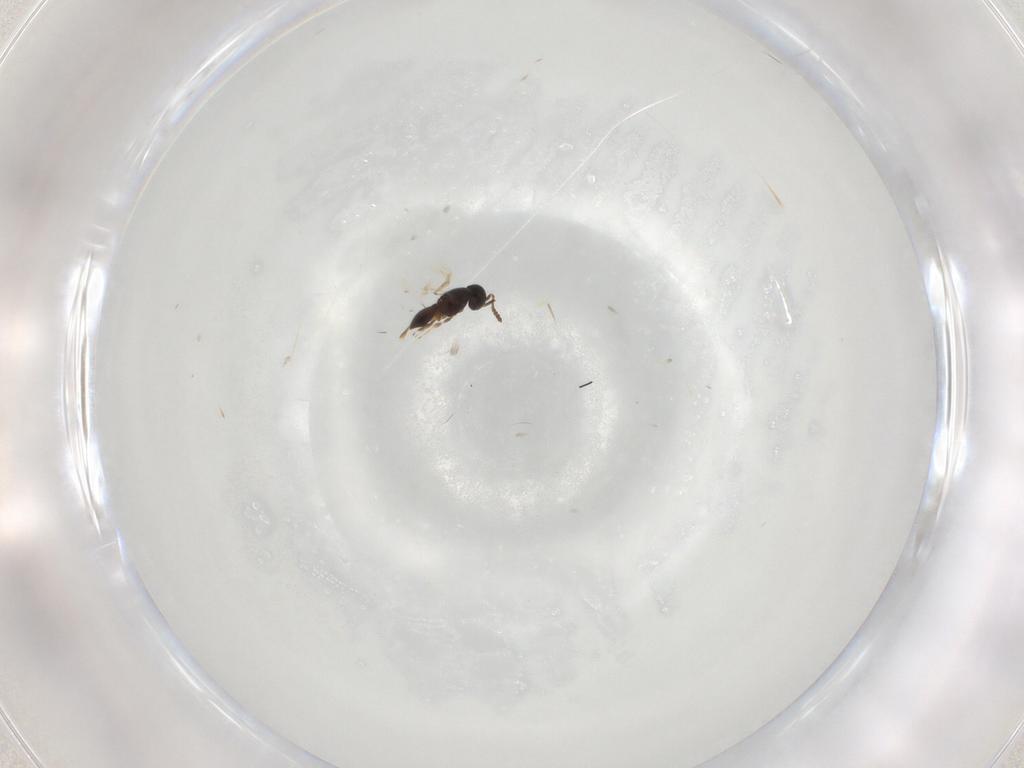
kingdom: Animalia
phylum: Arthropoda
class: Insecta
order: Hymenoptera
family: Scelionidae
